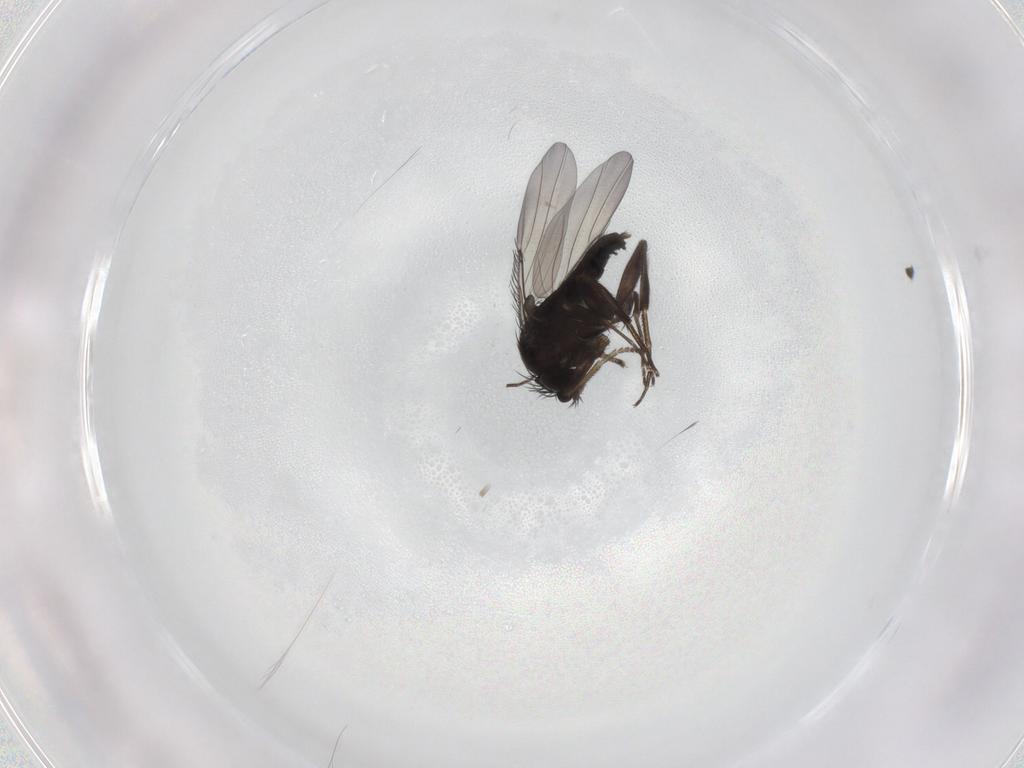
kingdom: Animalia
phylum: Arthropoda
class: Insecta
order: Diptera
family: Phoridae
